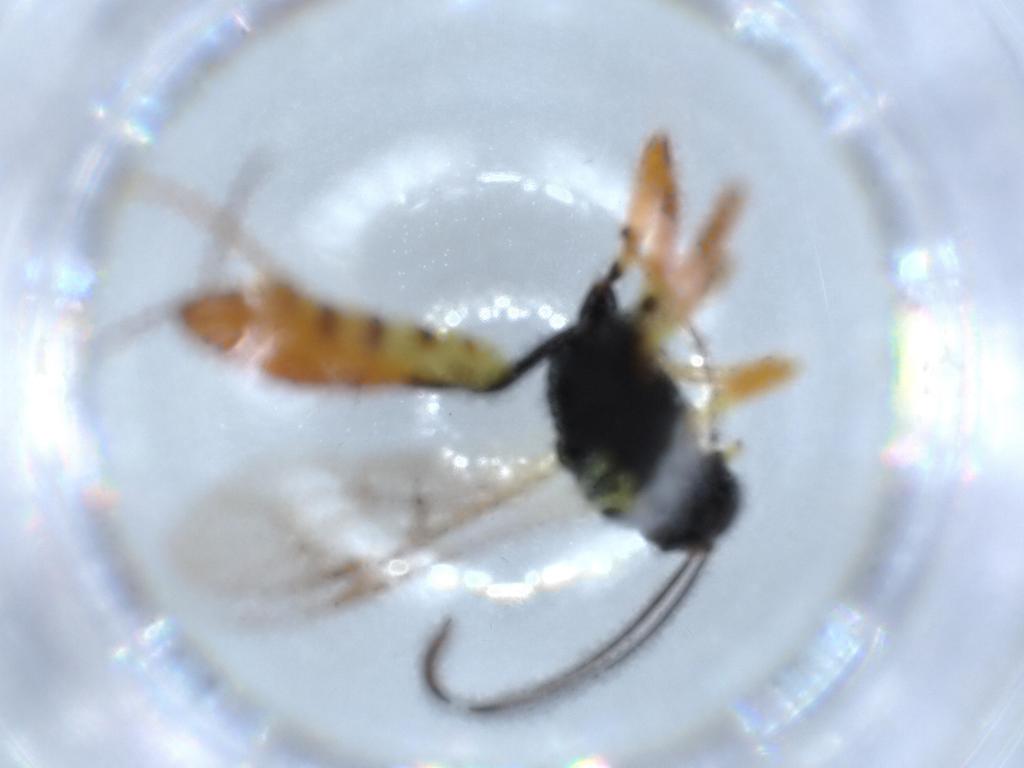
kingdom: Animalia
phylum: Arthropoda
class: Insecta
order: Hymenoptera
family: Ichneumonidae
